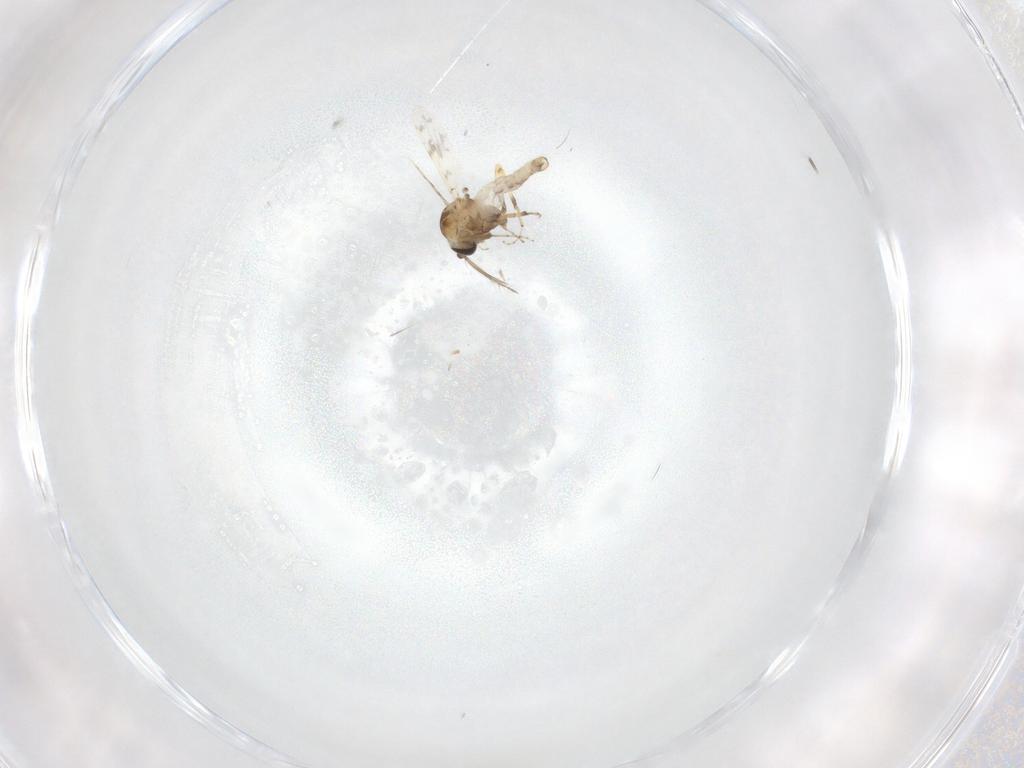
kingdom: Animalia
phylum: Arthropoda
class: Insecta
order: Diptera
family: Ceratopogonidae
